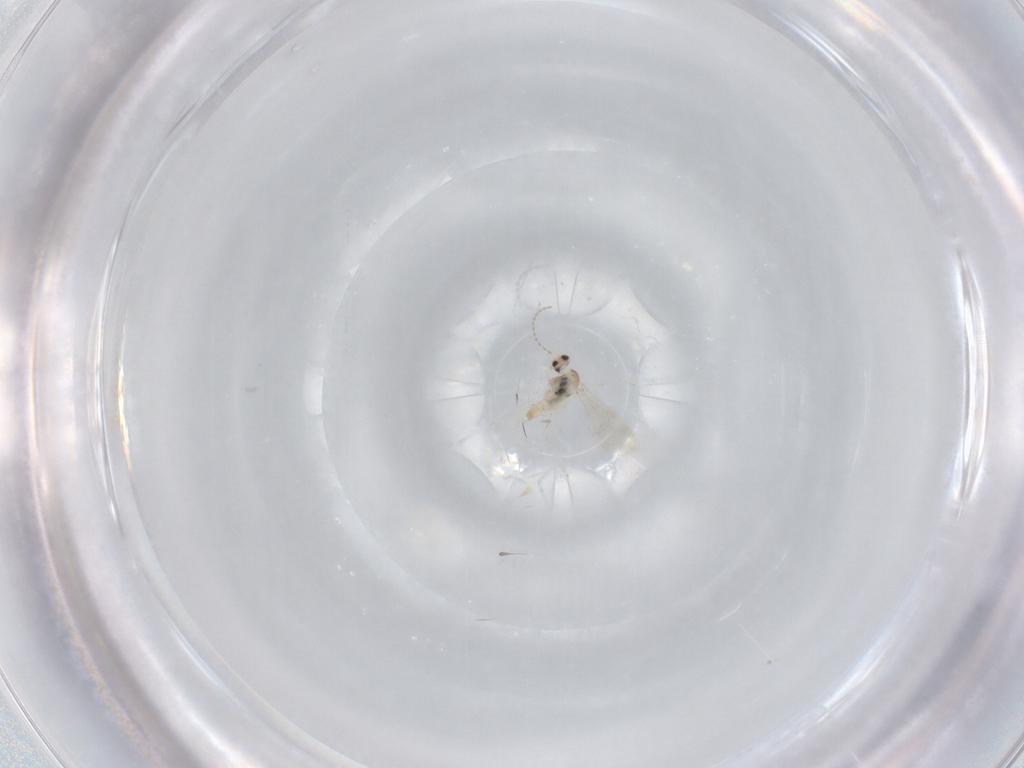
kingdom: Animalia
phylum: Arthropoda
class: Insecta
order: Diptera
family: Cecidomyiidae
